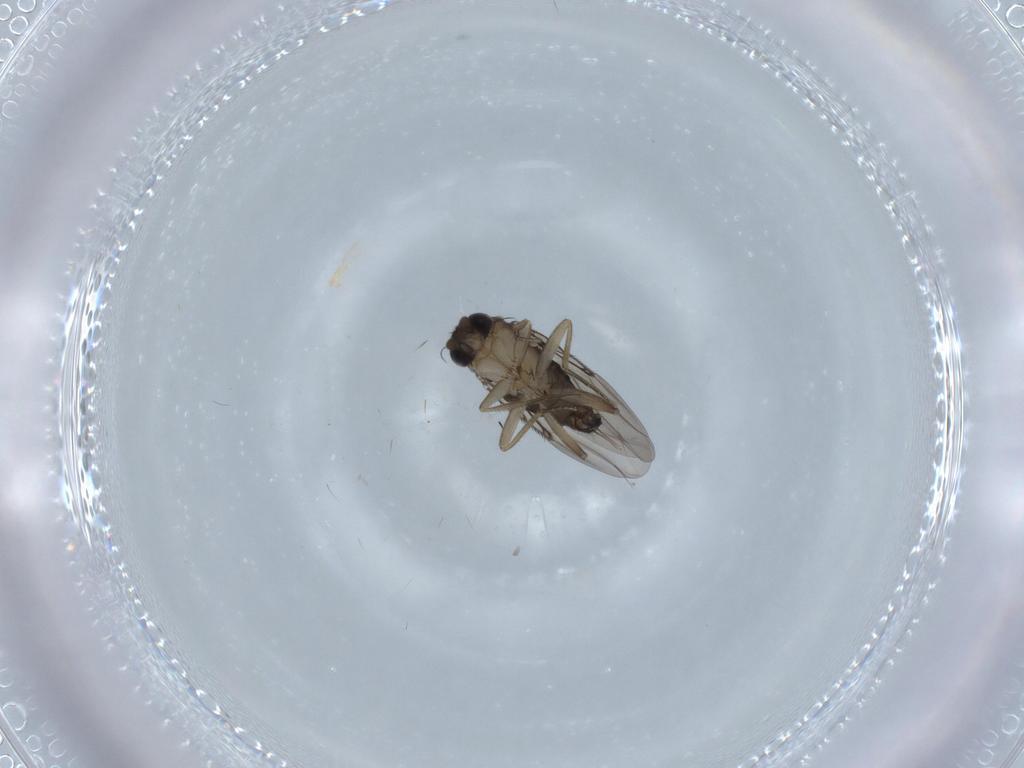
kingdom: Animalia
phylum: Arthropoda
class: Insecta
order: Diptera
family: Phoridae
